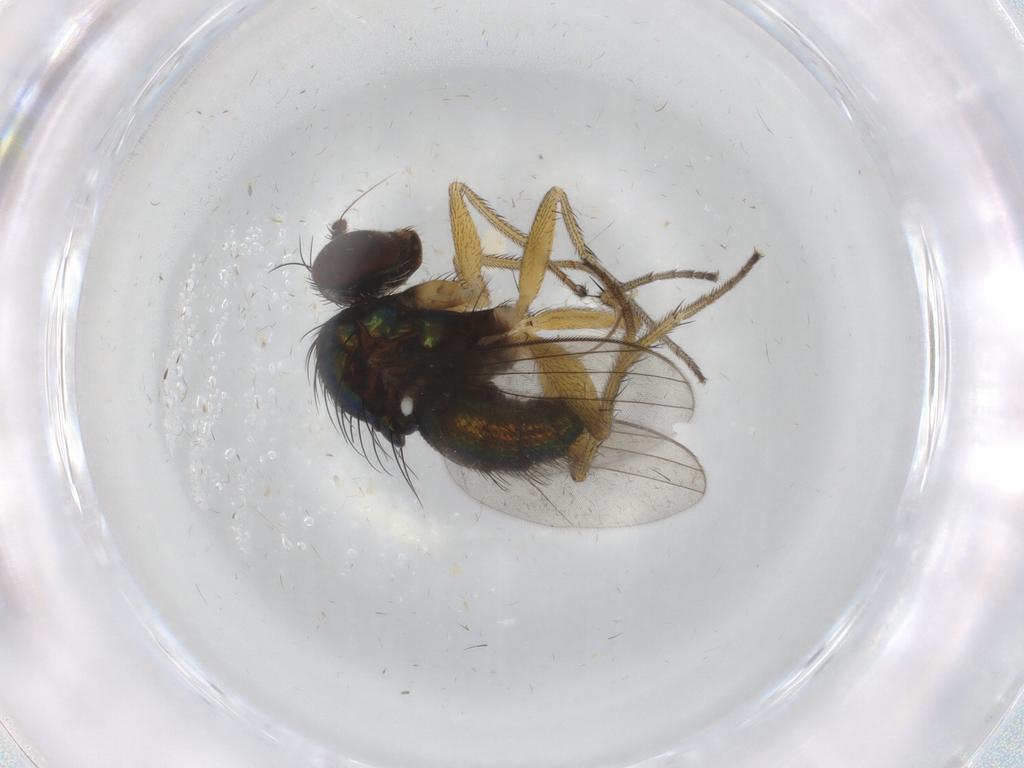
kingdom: Animalia
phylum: Arthropoda
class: Insecta
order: Diptera
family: Dolichopodidae
